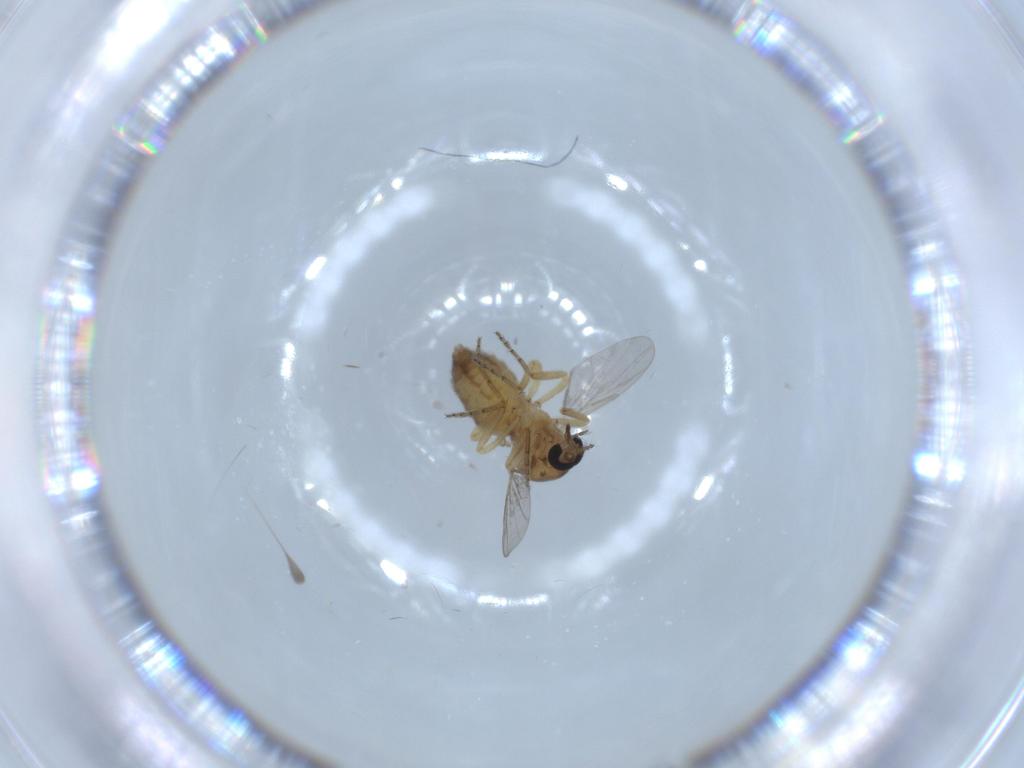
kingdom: Animalia
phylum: Arthropoda
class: Insecta
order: Diptera
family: Ceratopogonidae
